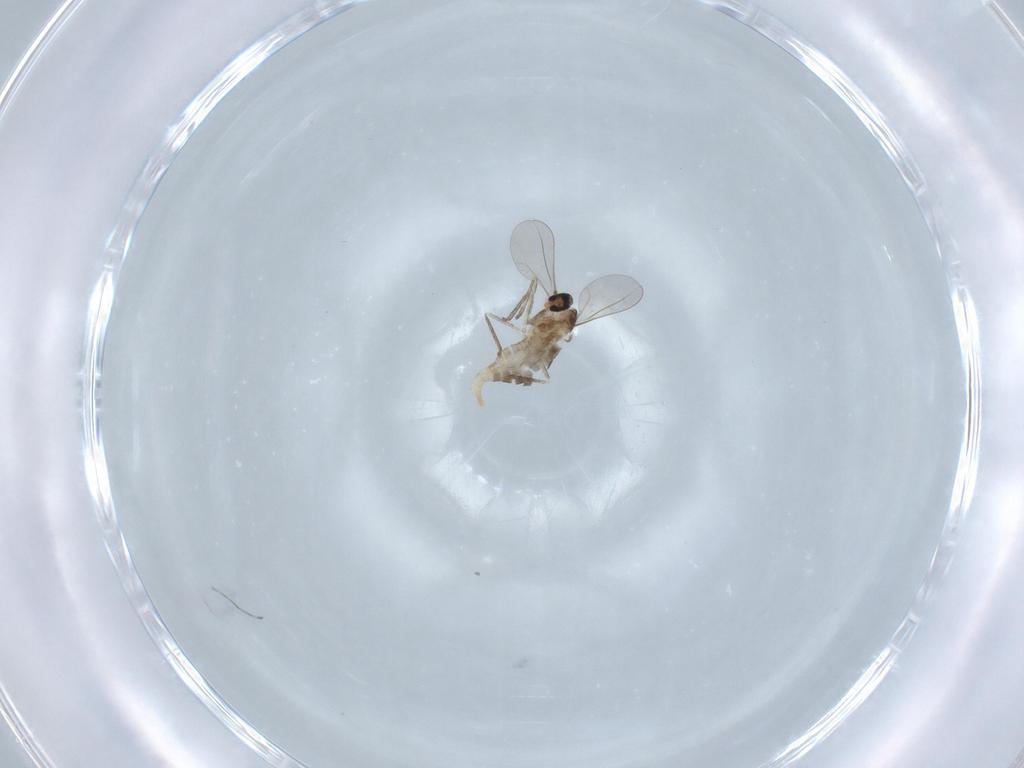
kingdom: Animalia
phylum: Arthropoda
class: Insecta
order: Diptera
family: Cecidomyiidae
